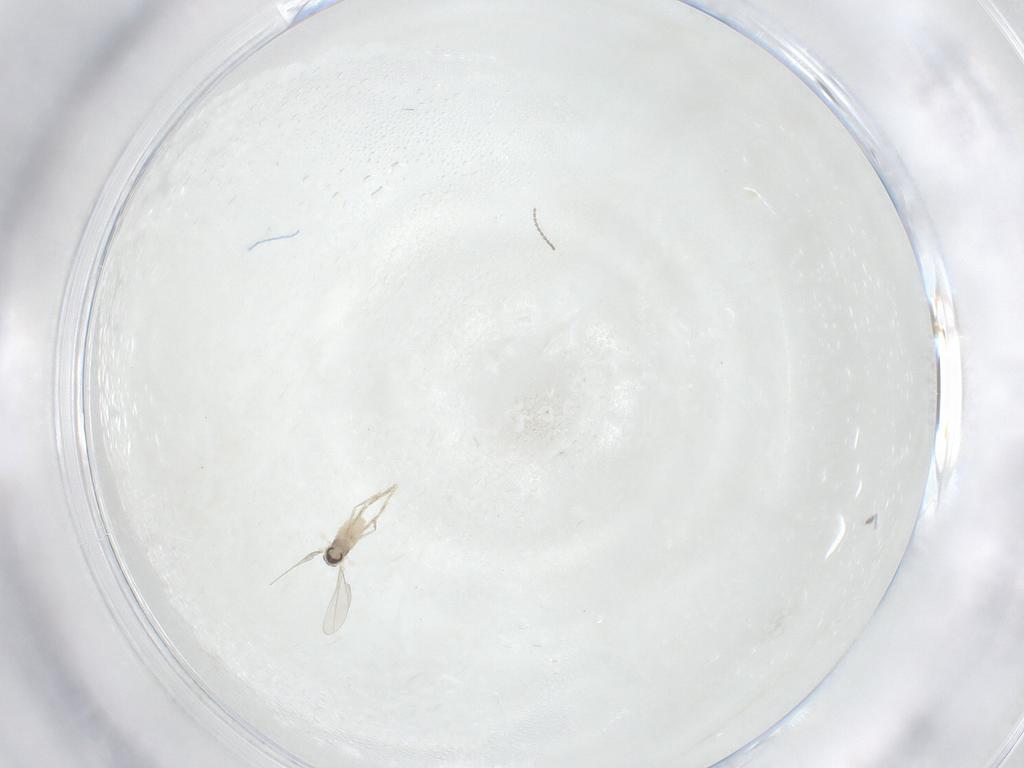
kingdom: Animalia
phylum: Arthropoda
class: Insecta
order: Diptera
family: Cecidomyiidae
